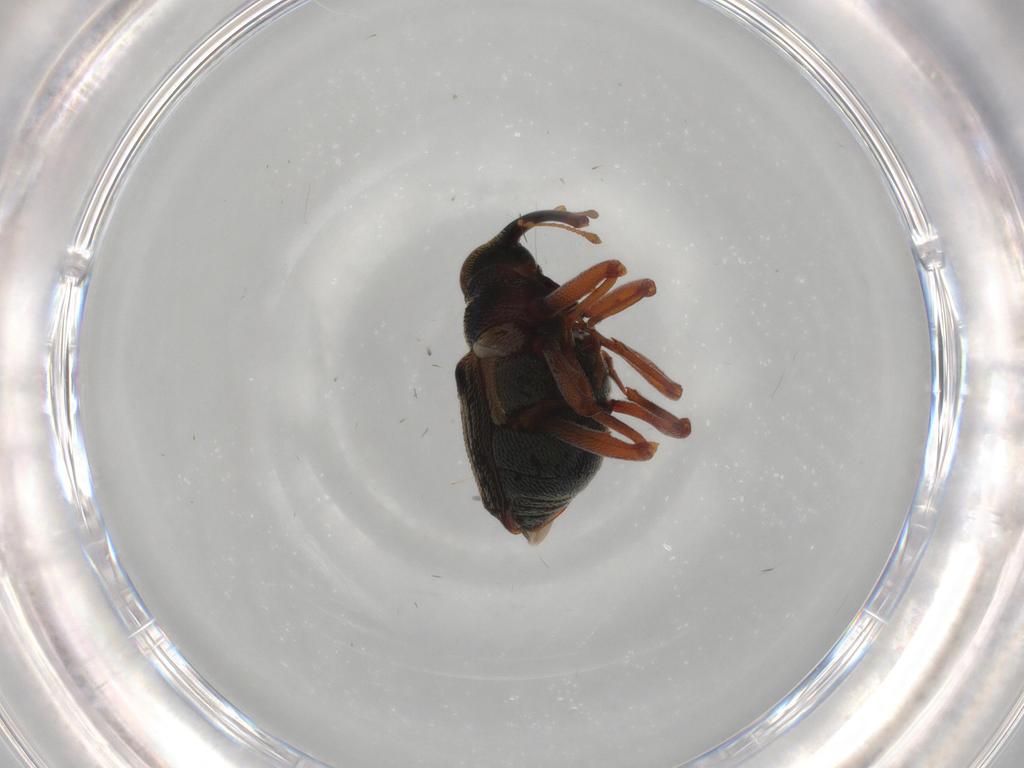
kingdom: Animalia
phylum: Arthropoda
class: Insecta
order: Coleoptera
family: Curculionidae
